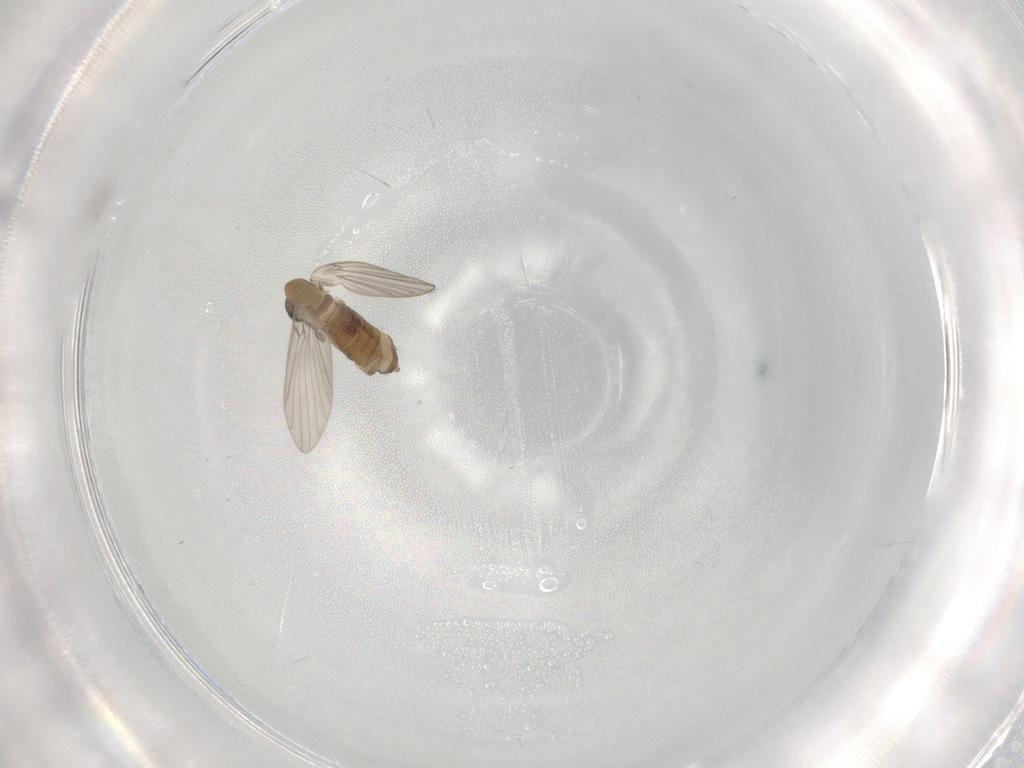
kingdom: Animalia
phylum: Arthropoda
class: Insecta
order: Diptera
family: Psychodidae
